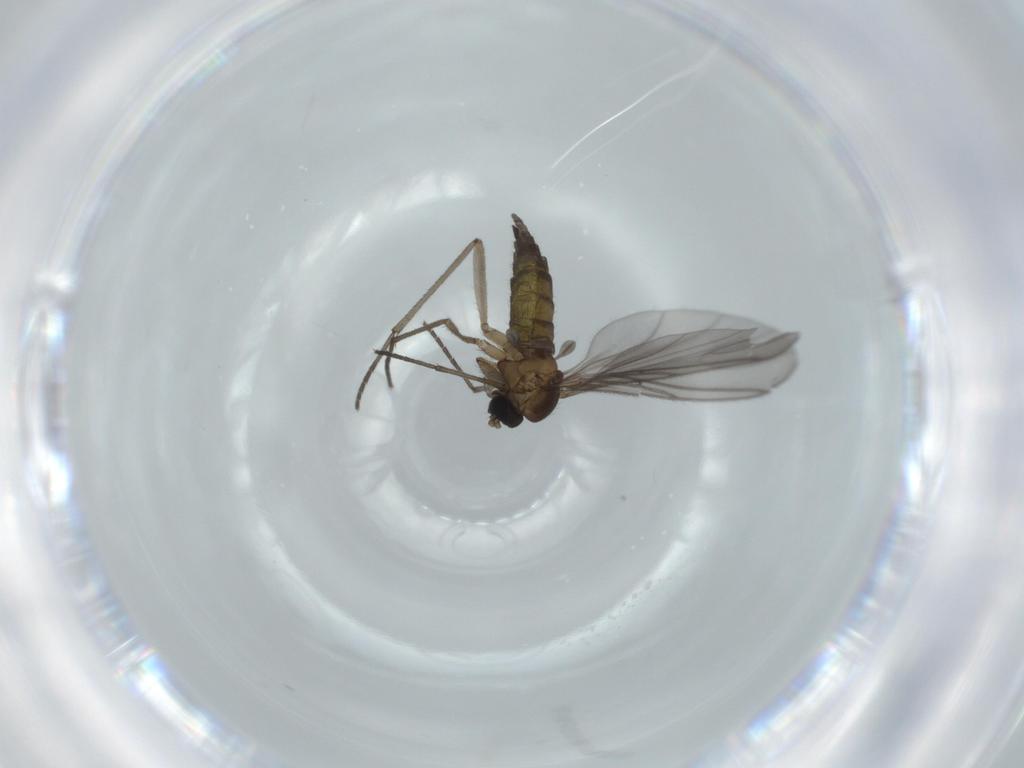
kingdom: Animalia
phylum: Arthropoda
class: Insecta
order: Diptera
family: Sciaridae
